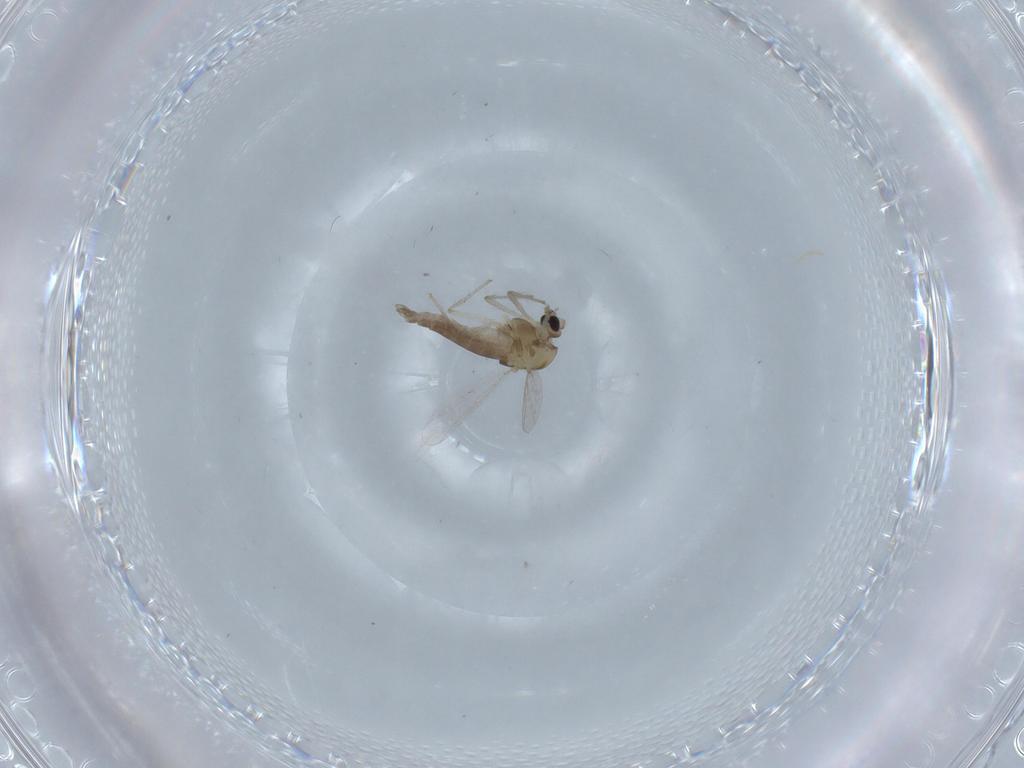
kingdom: Animalia
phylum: Arthropoda
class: Insecta
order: Diptera
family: Chironomidae
